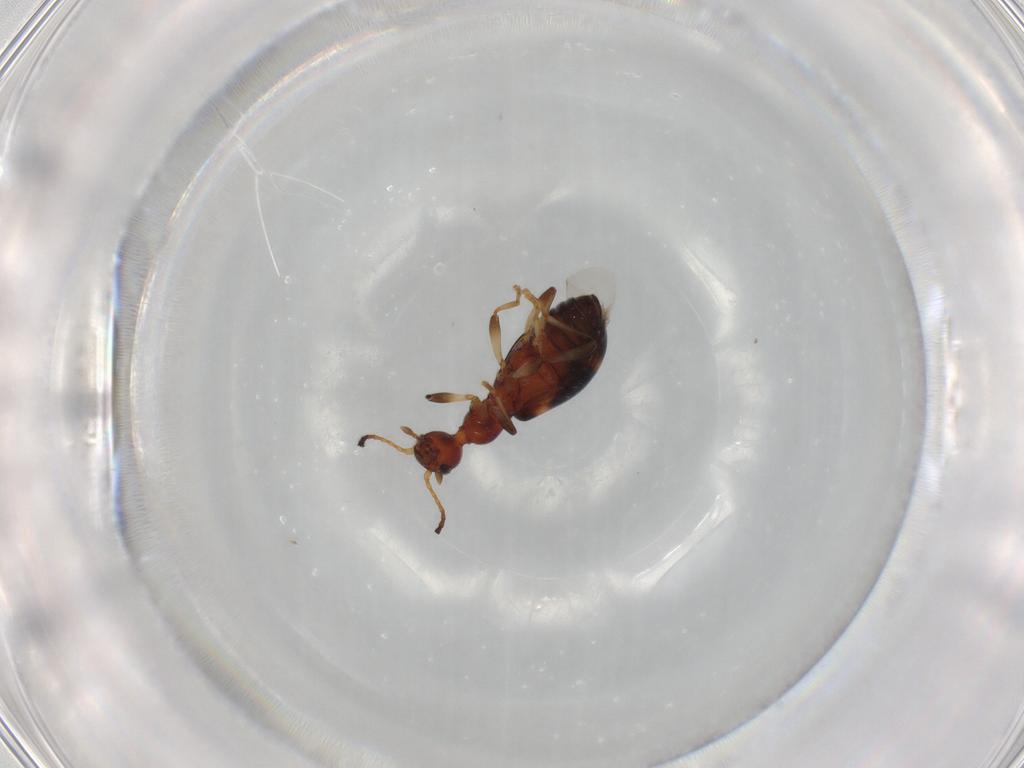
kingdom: Animalia
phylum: Arthropoda
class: Insecta
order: Coleoptera
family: Anthicidae
